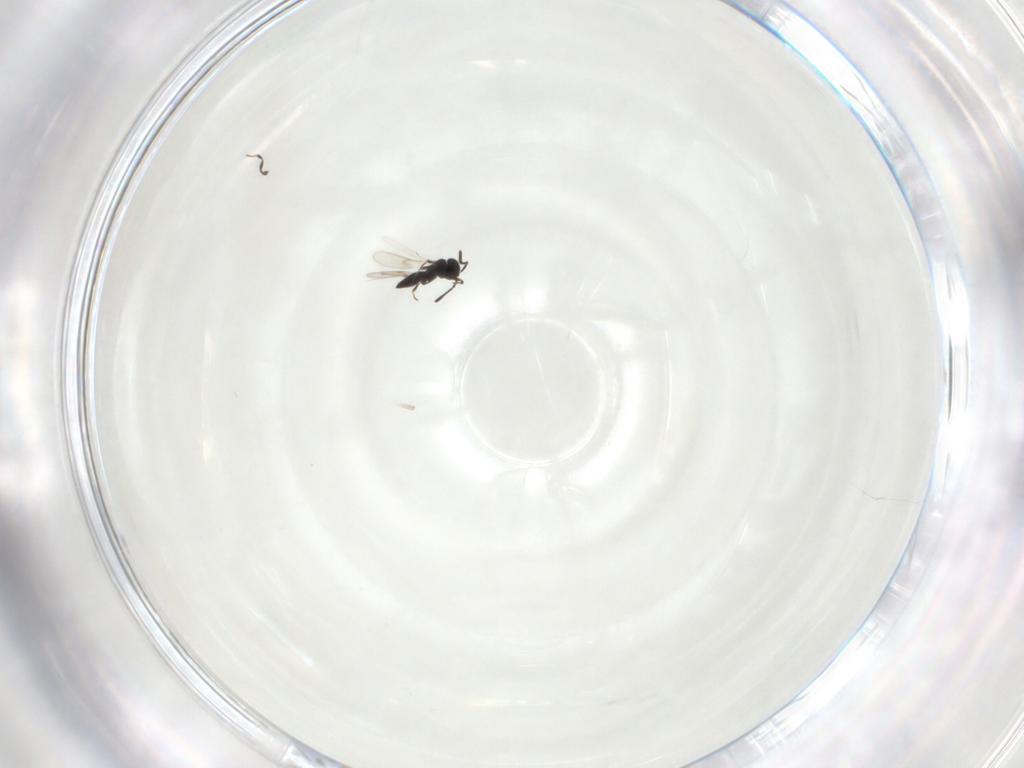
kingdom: Animalia
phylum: Arthropoda
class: Insecta
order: Hymenoptera
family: Scelionidae
